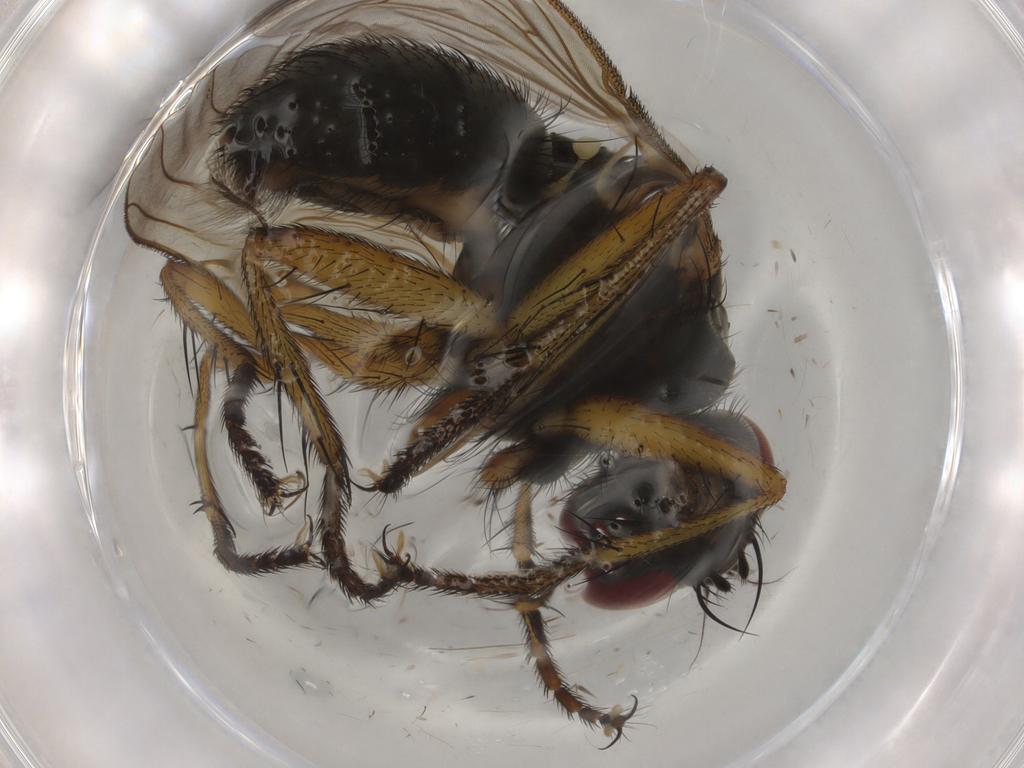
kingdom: Animalia
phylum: Arthropoda
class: Insecta
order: Diptera
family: Muscidae
